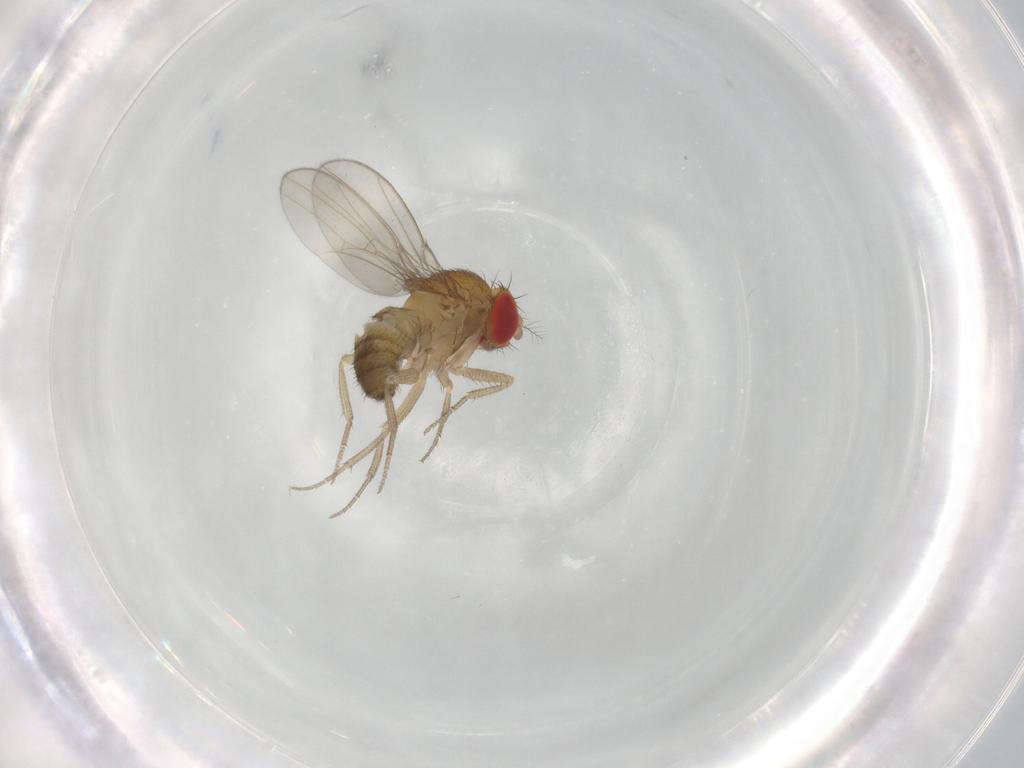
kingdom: Animalia
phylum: Arthropoda
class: Insecta
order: Diptera
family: Drosophilidae
